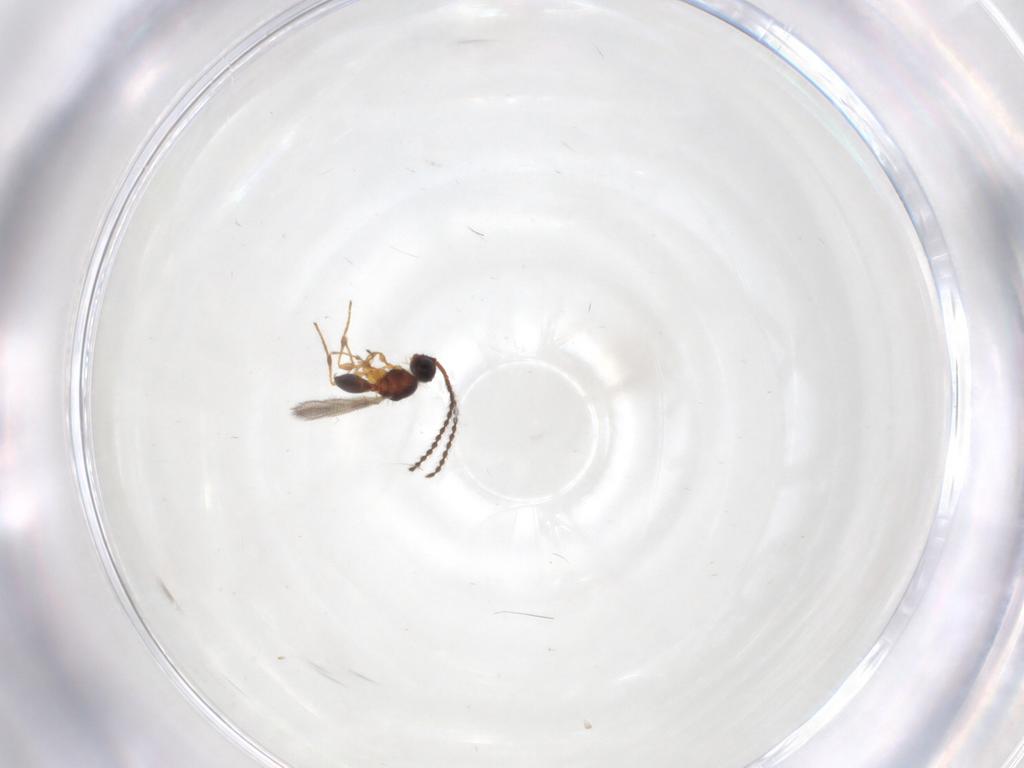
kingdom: Animalia
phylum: Arthropoda
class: Insecta
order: Hymenoptera
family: Diapriidae
